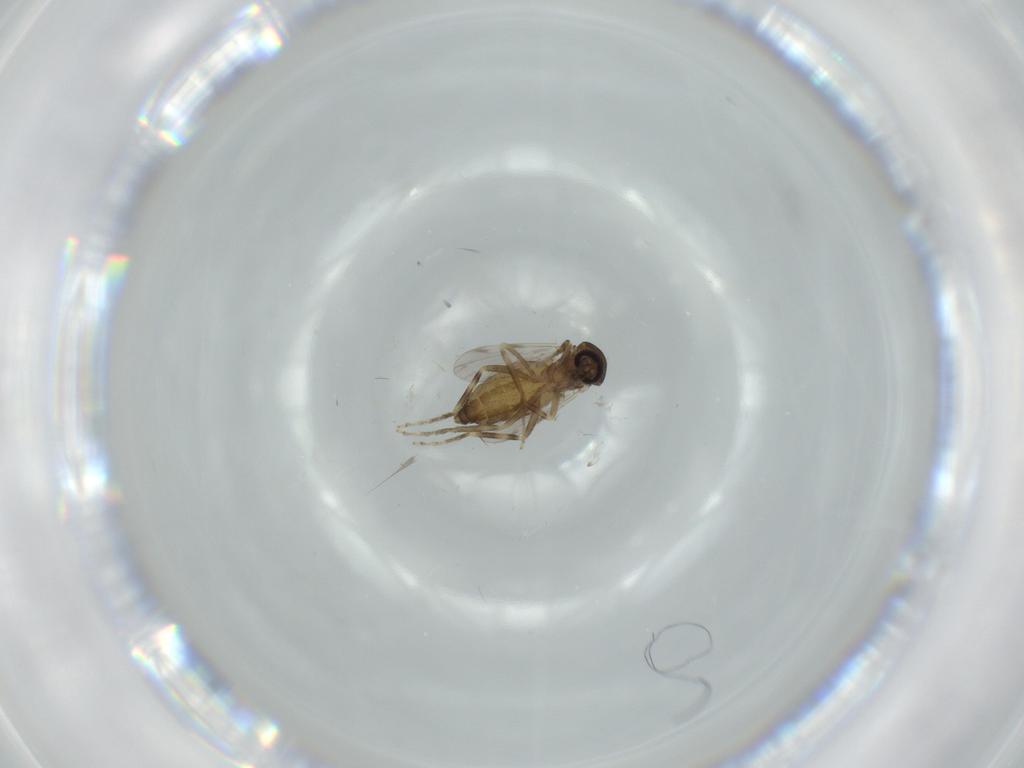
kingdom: Animalia
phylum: Arthropoda
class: Insecta
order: Diptera
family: Ceratopogonidae
